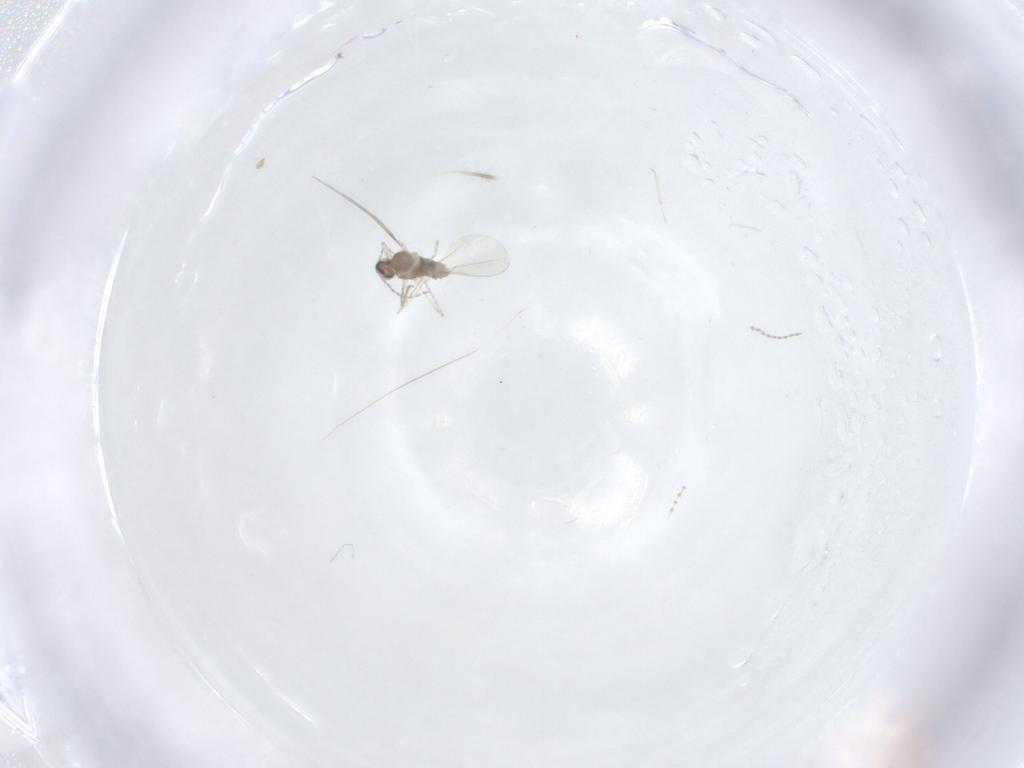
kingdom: Animalia
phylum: Arthropoda
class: Insecta
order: Diptera
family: Cecidomyiidae
